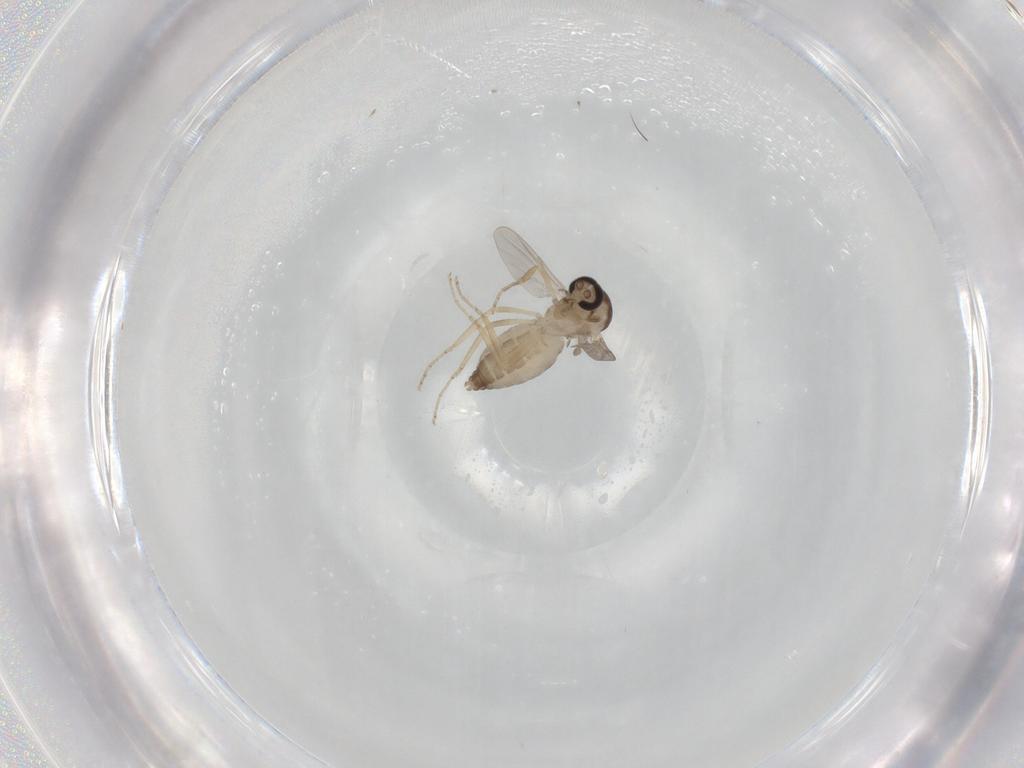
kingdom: Animalia
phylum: Arthropoda
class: Insecta
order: Diptera
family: Ceratopogonidae
